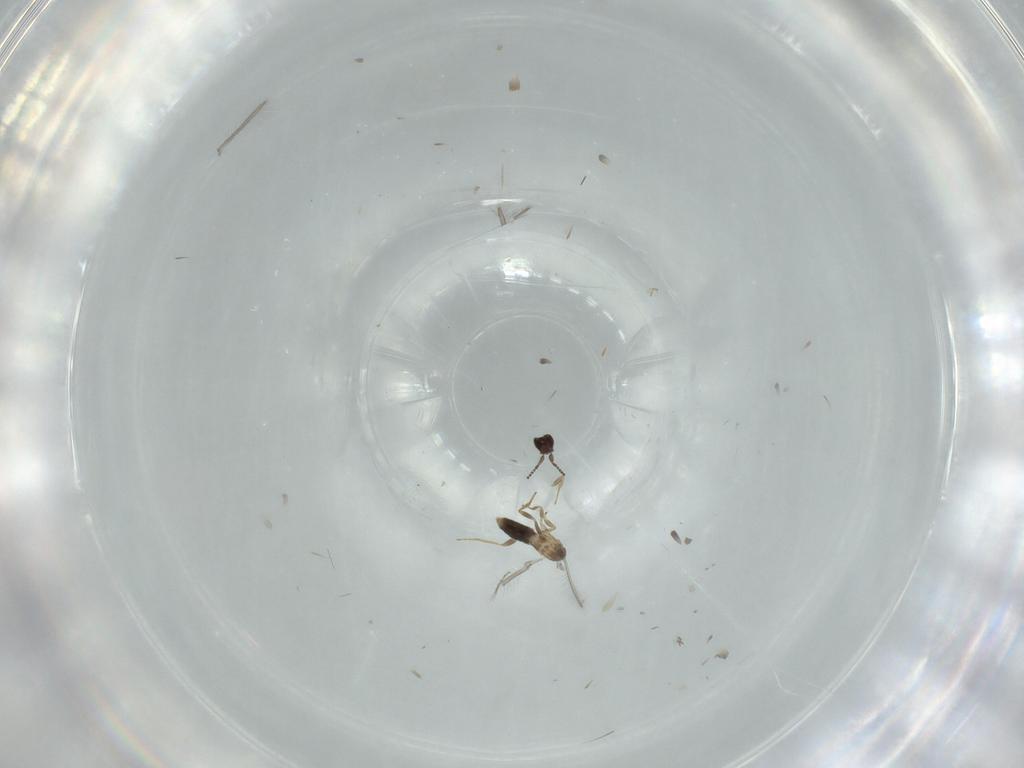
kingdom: Animalia
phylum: Arthropoda
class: Insecta
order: Hymenoptera
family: Mymaridae
